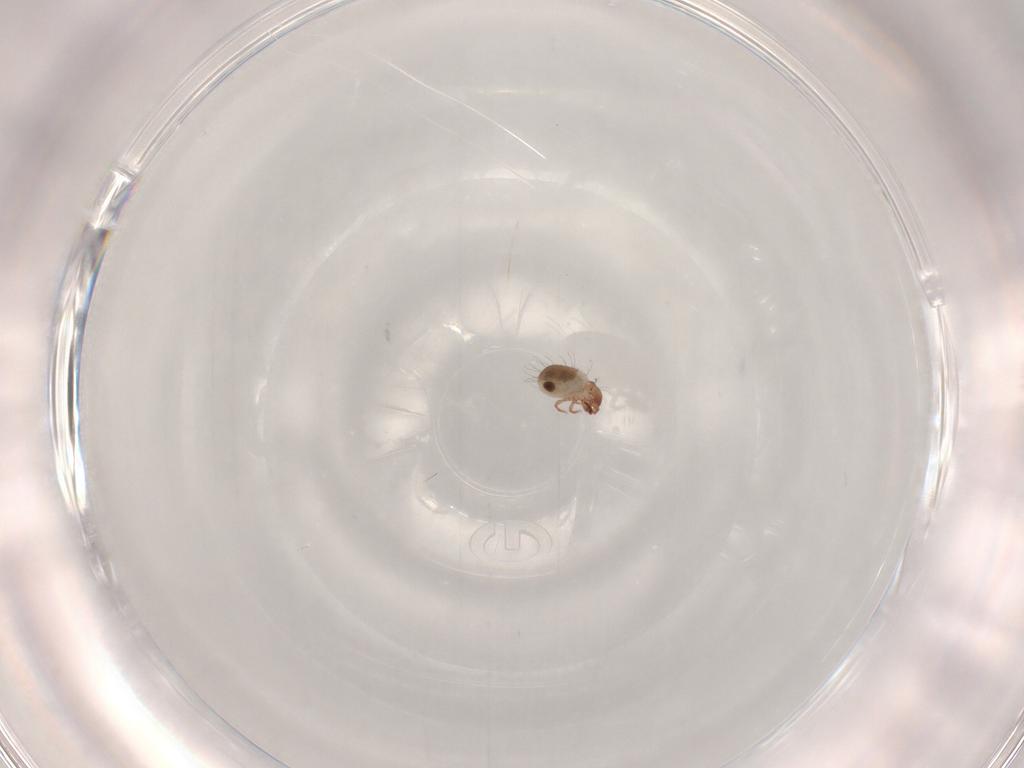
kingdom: Animalia
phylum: Arthropoda
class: Arachnida
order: Sarcoptiformes
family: Humerobatidae
